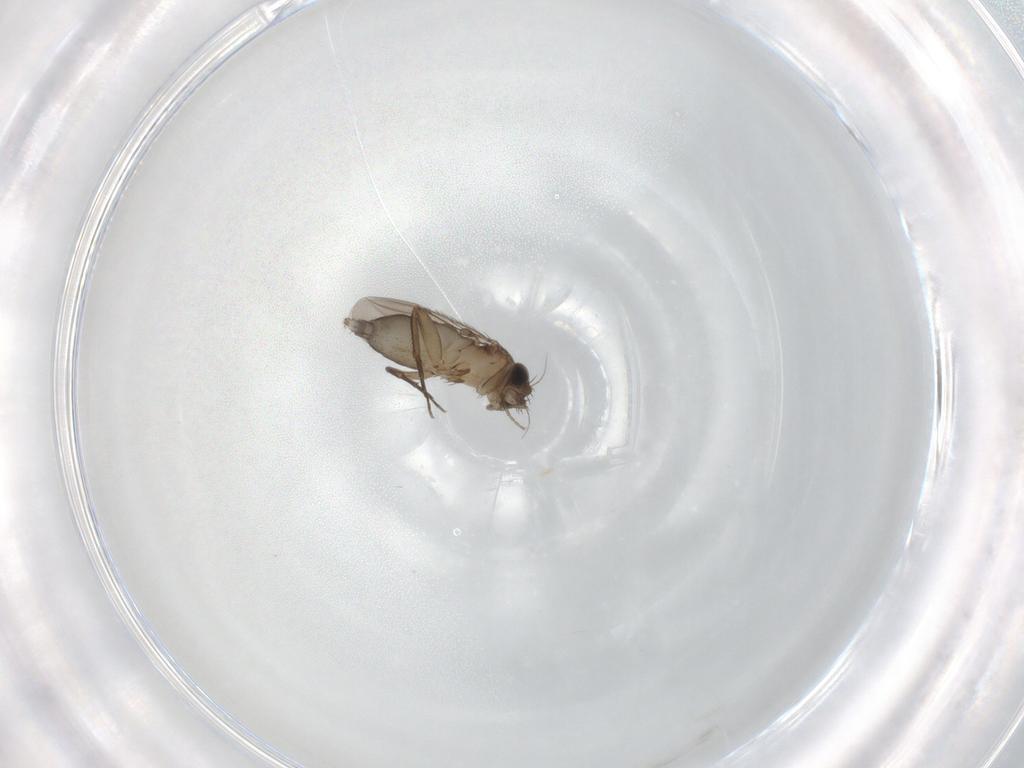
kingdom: Animalia
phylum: Arthropoda
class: Insecta
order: Diptera
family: Phoridae
